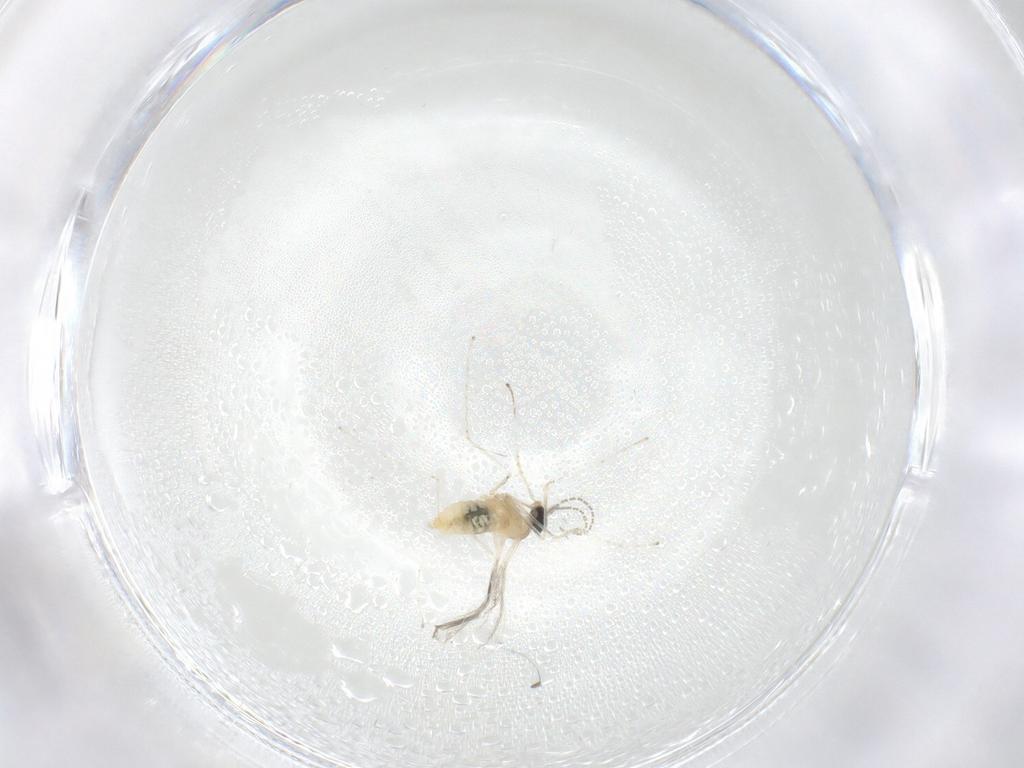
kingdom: Animalia
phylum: Arthropoda
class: Insecta
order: Diptera
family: Cecidomyiidae
